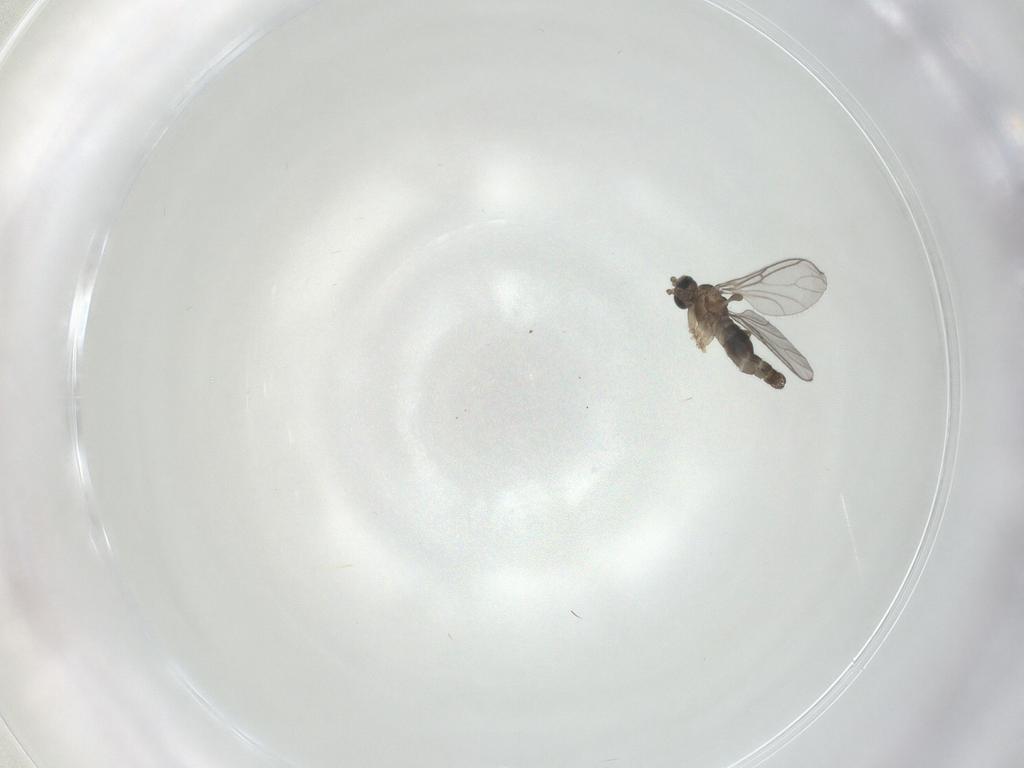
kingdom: Animalia
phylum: Arthropoda
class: Insecta
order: Diptera
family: Sciaridae
